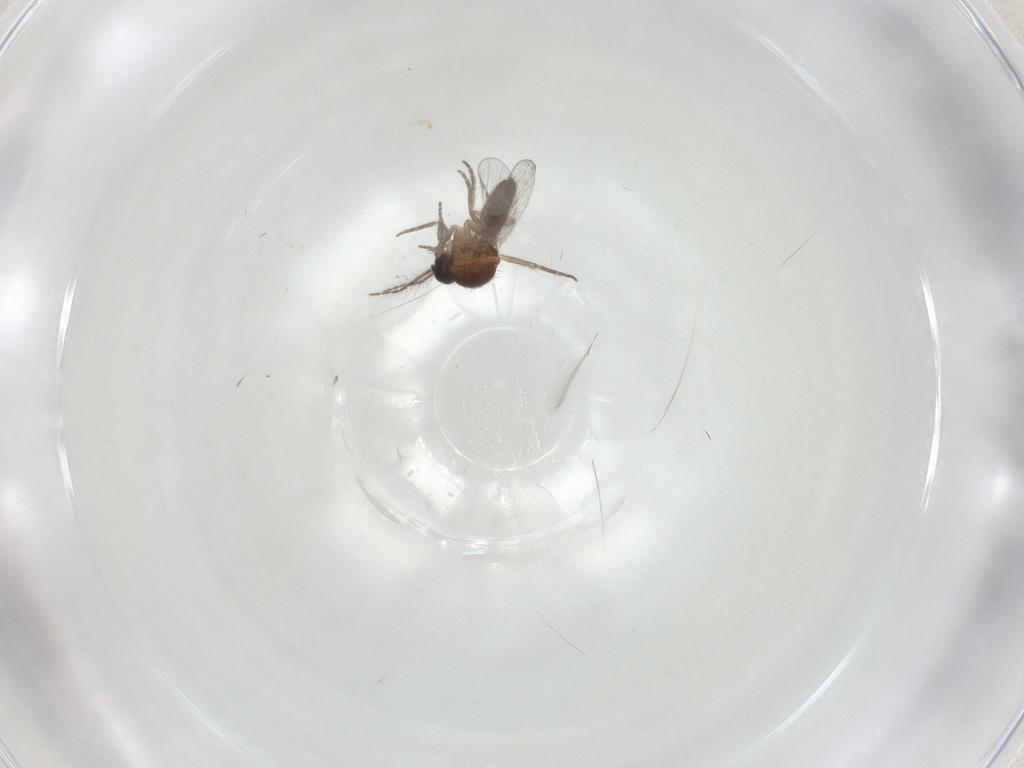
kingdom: Animalia
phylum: Arthropoda
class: Insecta
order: Diptera
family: Ceratopogonidae
